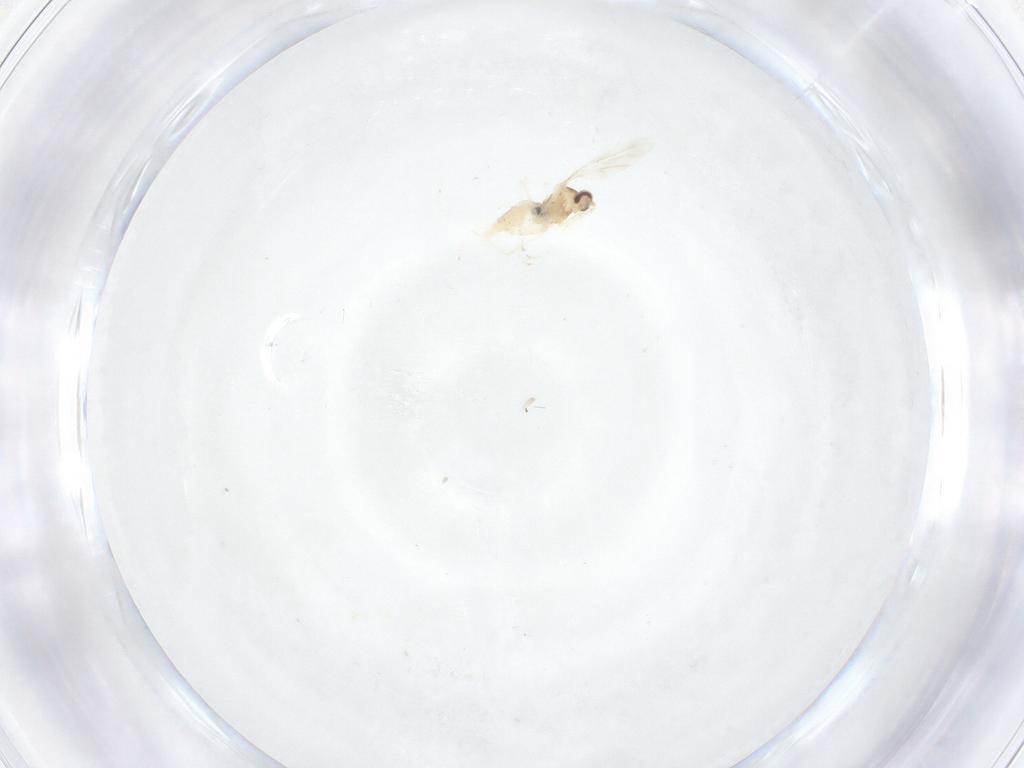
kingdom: Animalia
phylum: Arthropoda
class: Insecta
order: Diptera
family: Cecidomyiidae
